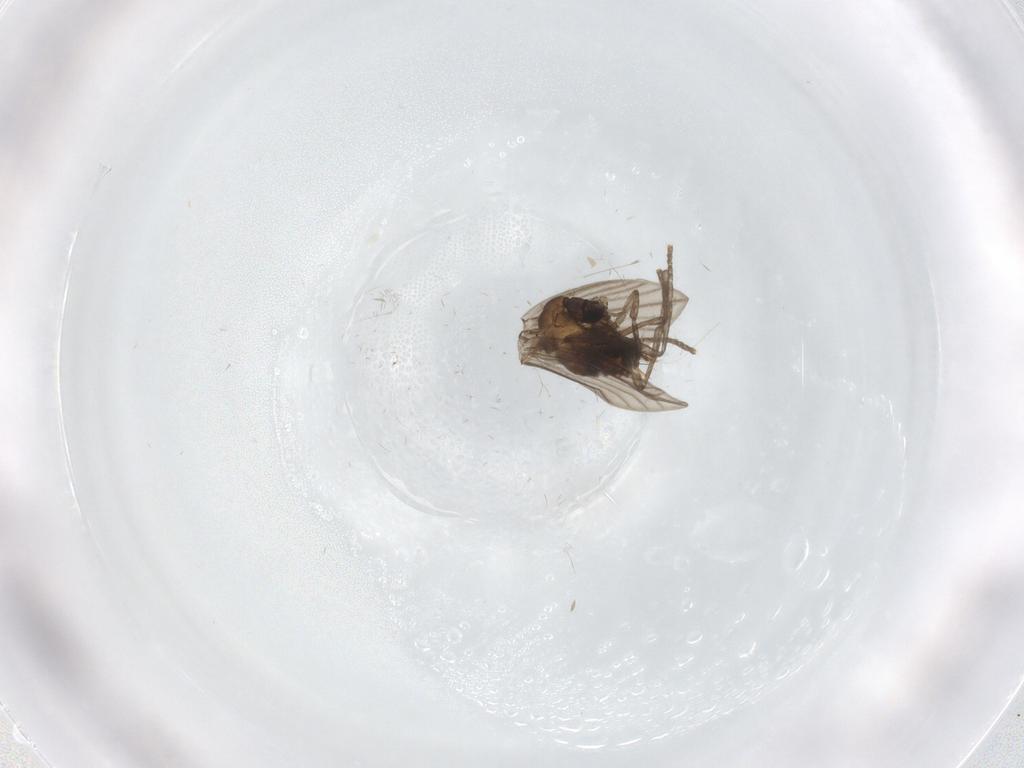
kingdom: Animalia
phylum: Arthropoda
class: Insecta
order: Diptera
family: Psychodidae
